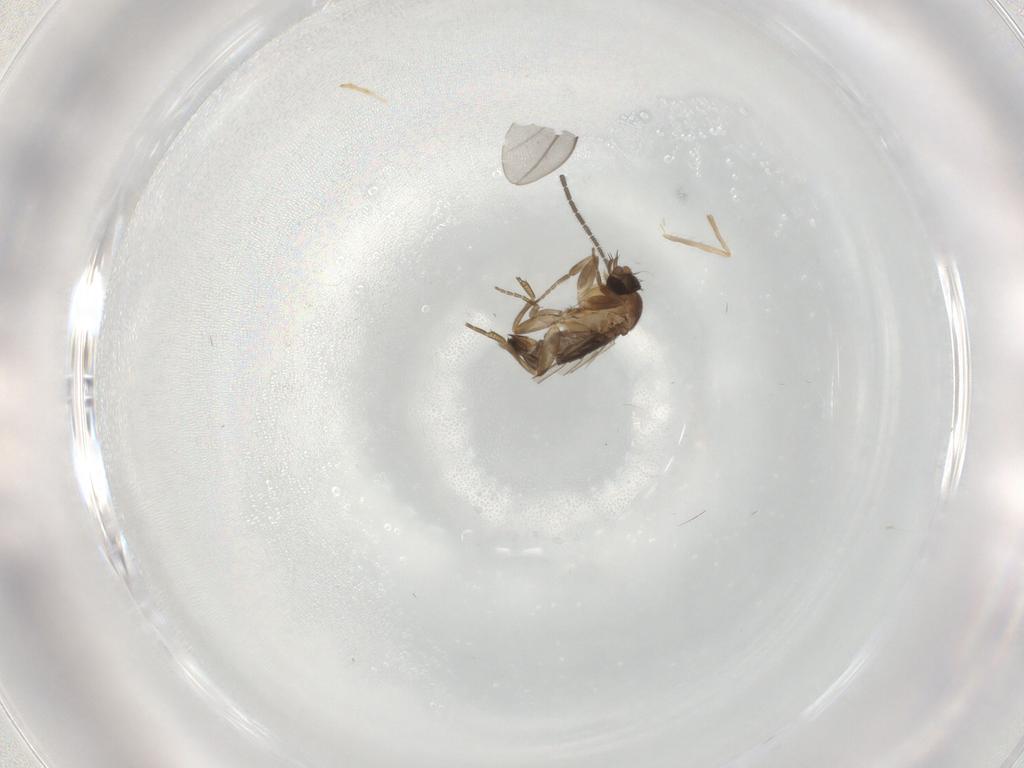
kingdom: Animalia
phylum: Arthropoda
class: Insecta
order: Diptera
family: Sciaridae
